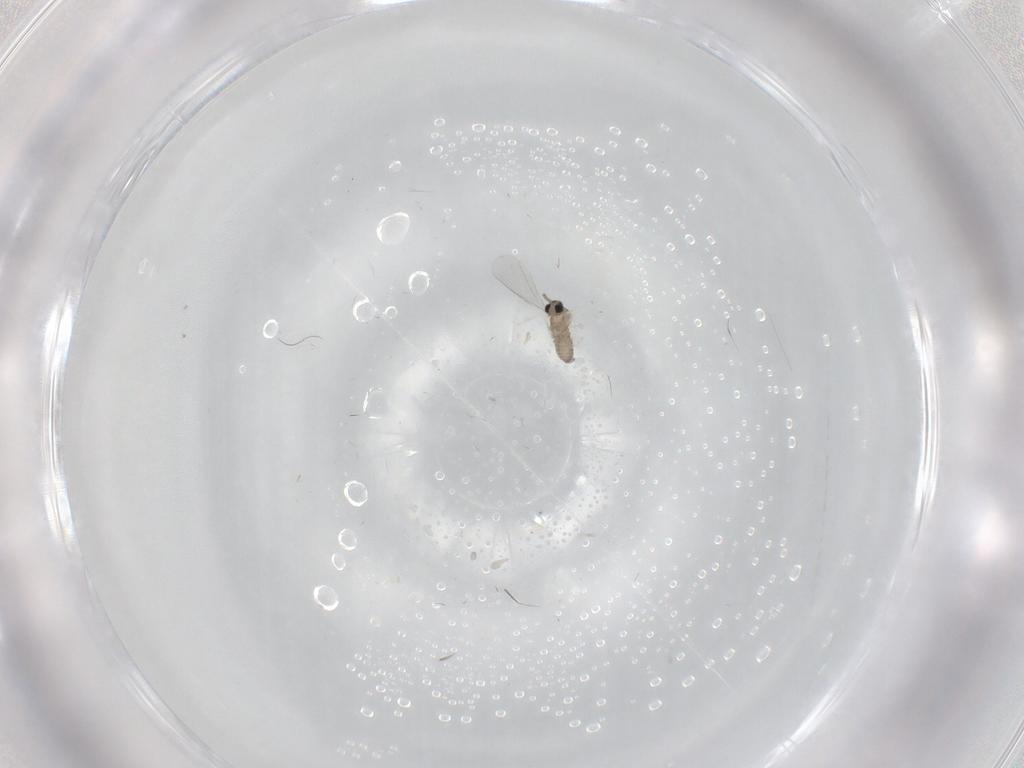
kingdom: Animalia
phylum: Arthropoda
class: Insecta
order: Diptera
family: Cecidomyiidae
